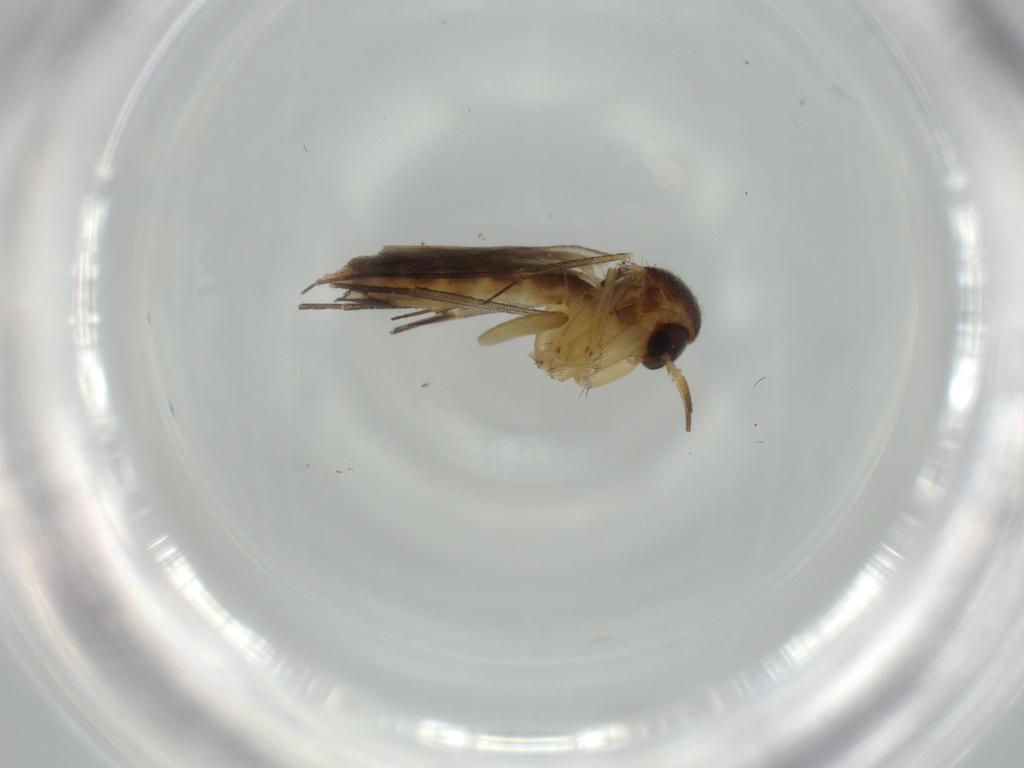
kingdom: Animalia
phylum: Arthropoda
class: Insecta
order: Diptera
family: Mycetophilidae
